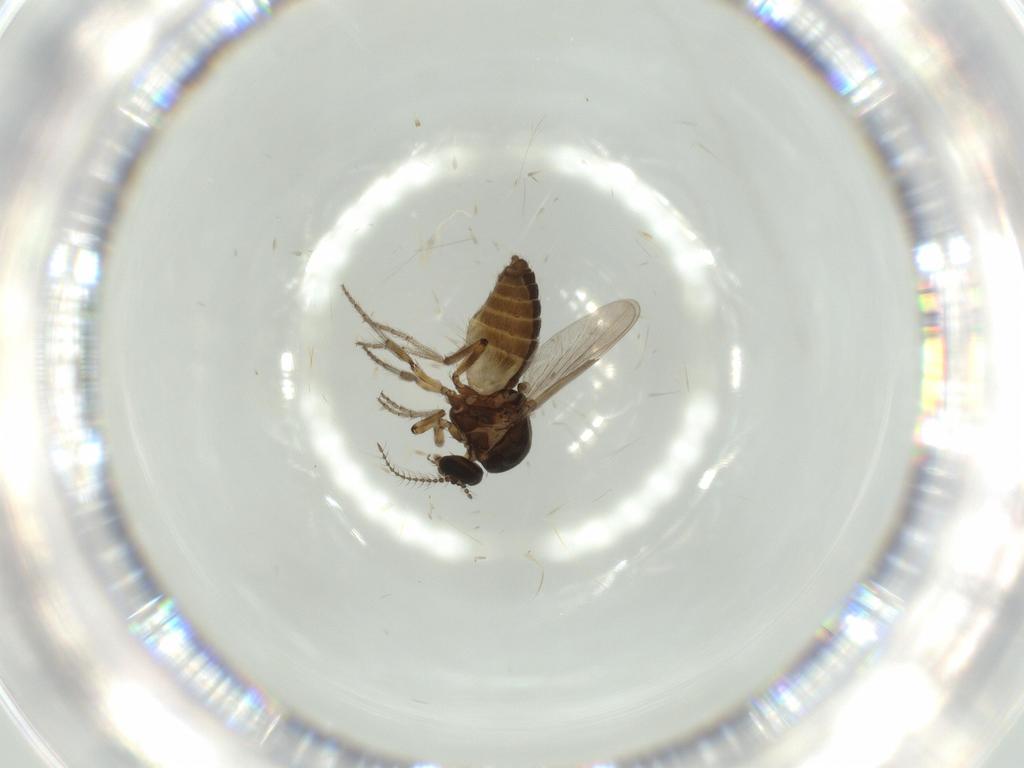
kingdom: Animalia
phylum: Arthropoda
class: Insecta
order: Diptera
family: Ceratopogonidae
